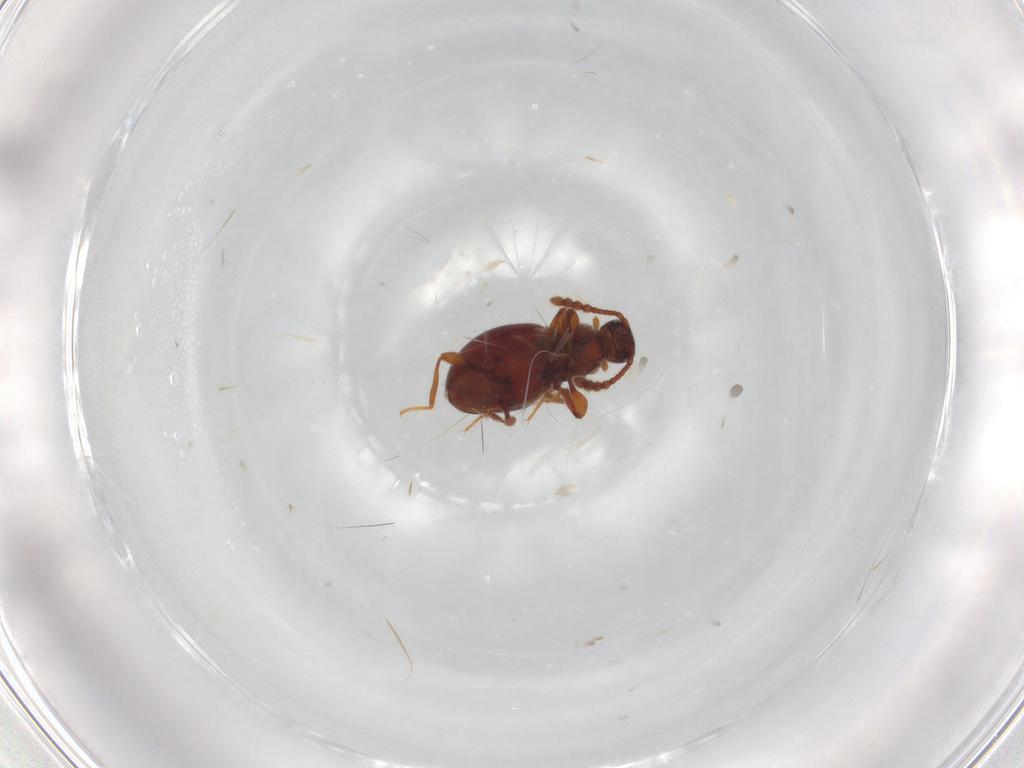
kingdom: Animalia
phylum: Arthropoda
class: Insecta
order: Coleoptera
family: Staphylinidae
